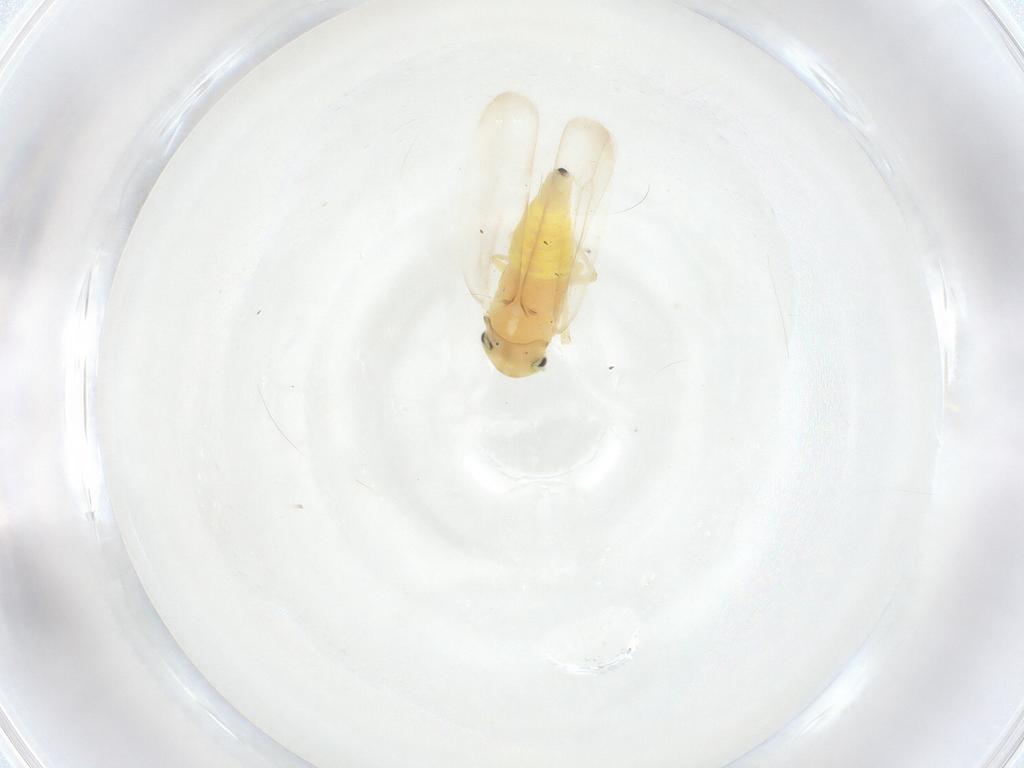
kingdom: Animalia
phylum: Arthropoda
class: Insecta
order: Hemiptera
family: Cicadellidae
